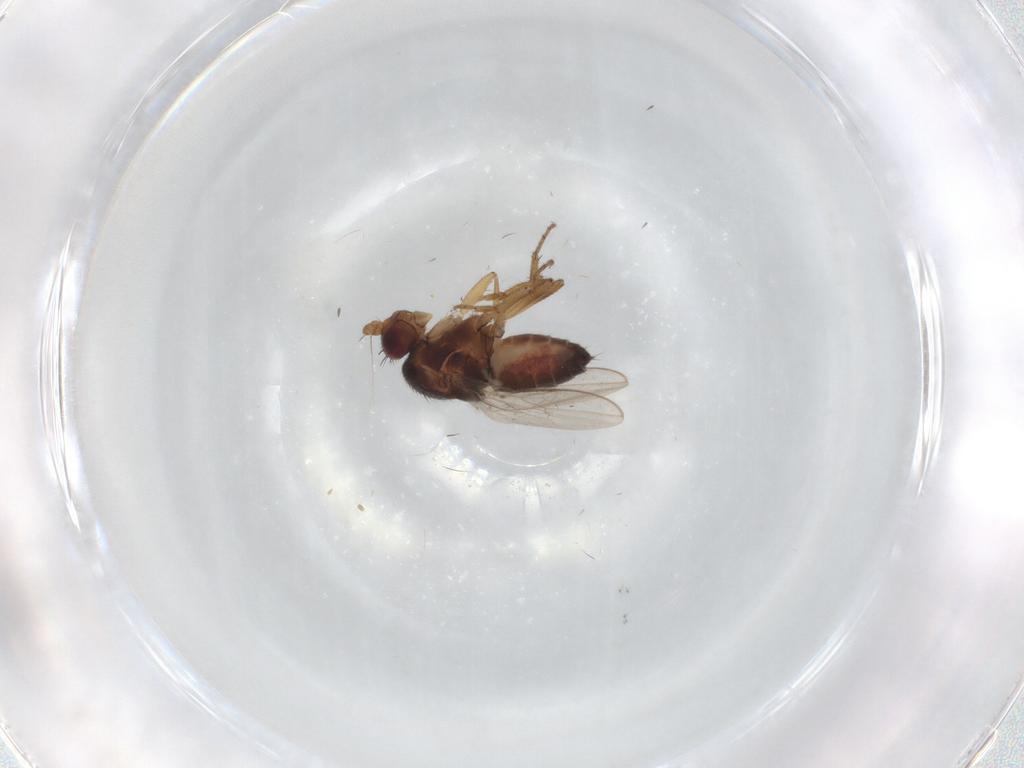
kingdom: Animalia
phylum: Arthropoda
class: Insecta
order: Diptera
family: Sphaeroceridae
